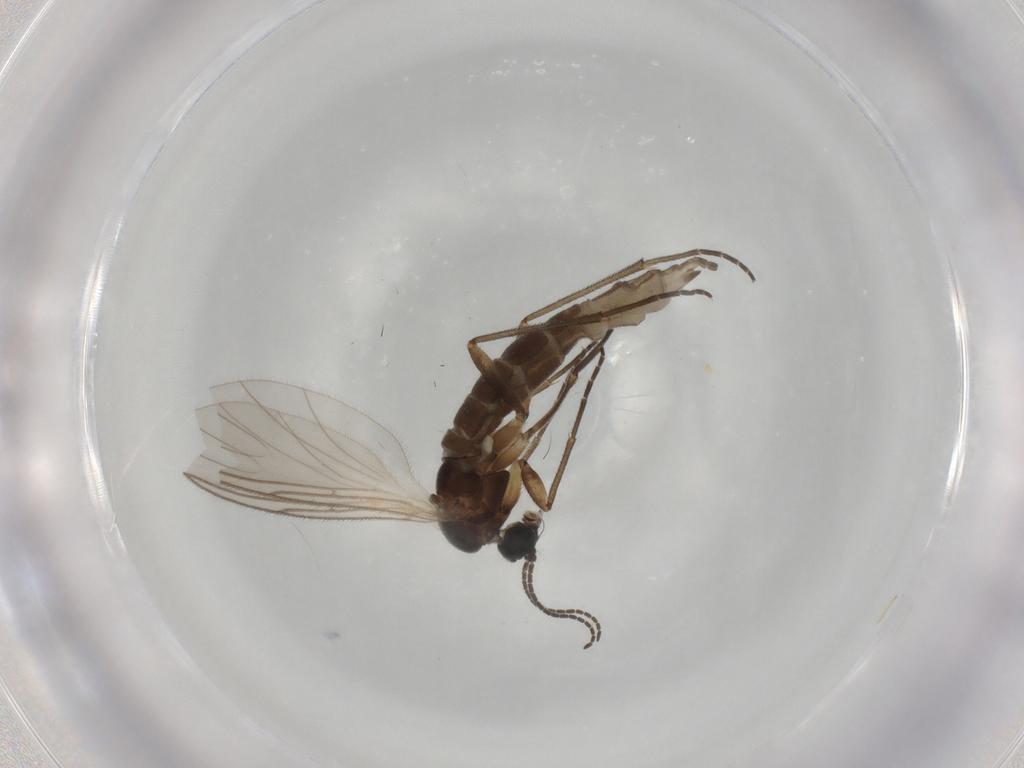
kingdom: Animalia
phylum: Arthropoda
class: Insecta
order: Diptera
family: Sciaridae
